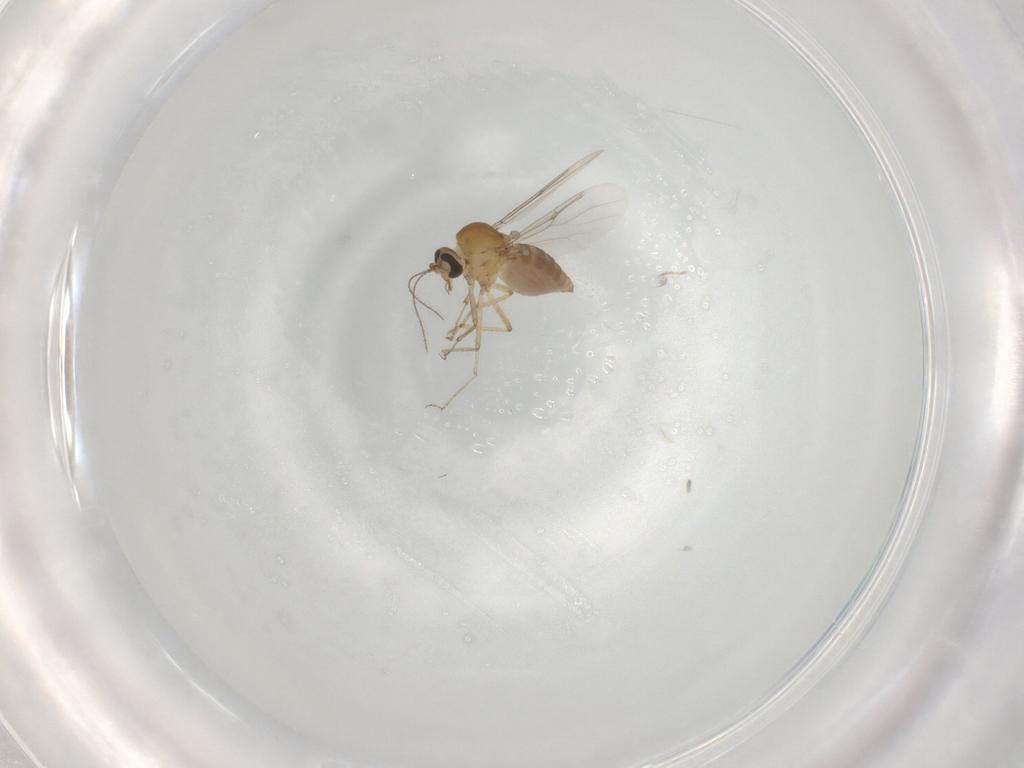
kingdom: Animalia
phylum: Arthropoda
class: Insecta
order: Diptera
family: Ceratopogonidae
